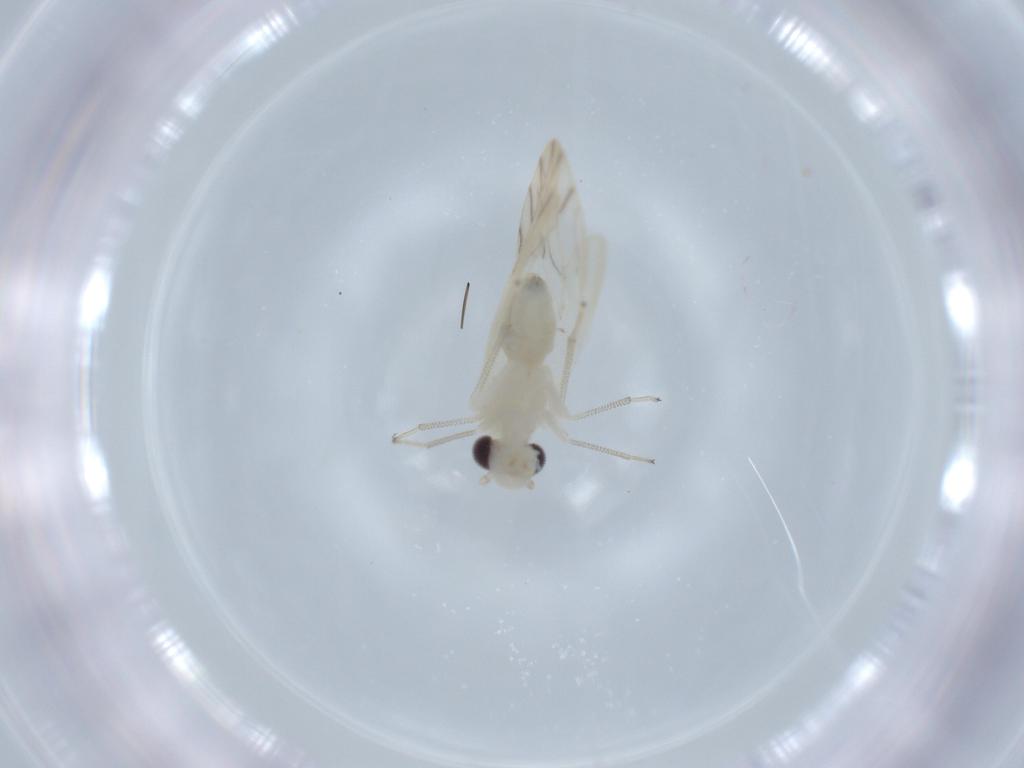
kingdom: Animalia
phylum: Arthropoda
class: Insecta
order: Psocodea
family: Caeciliusidae
